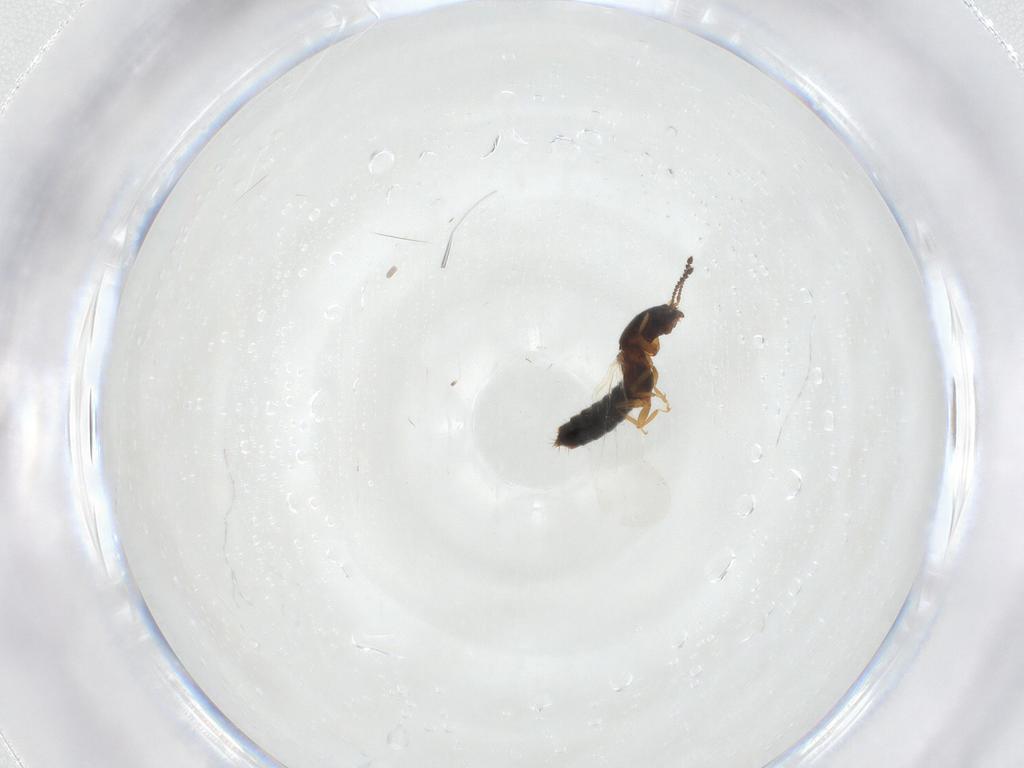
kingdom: Animalia
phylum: Arthropoda
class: Insecta
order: Coleoptera
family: Staphylinidae
